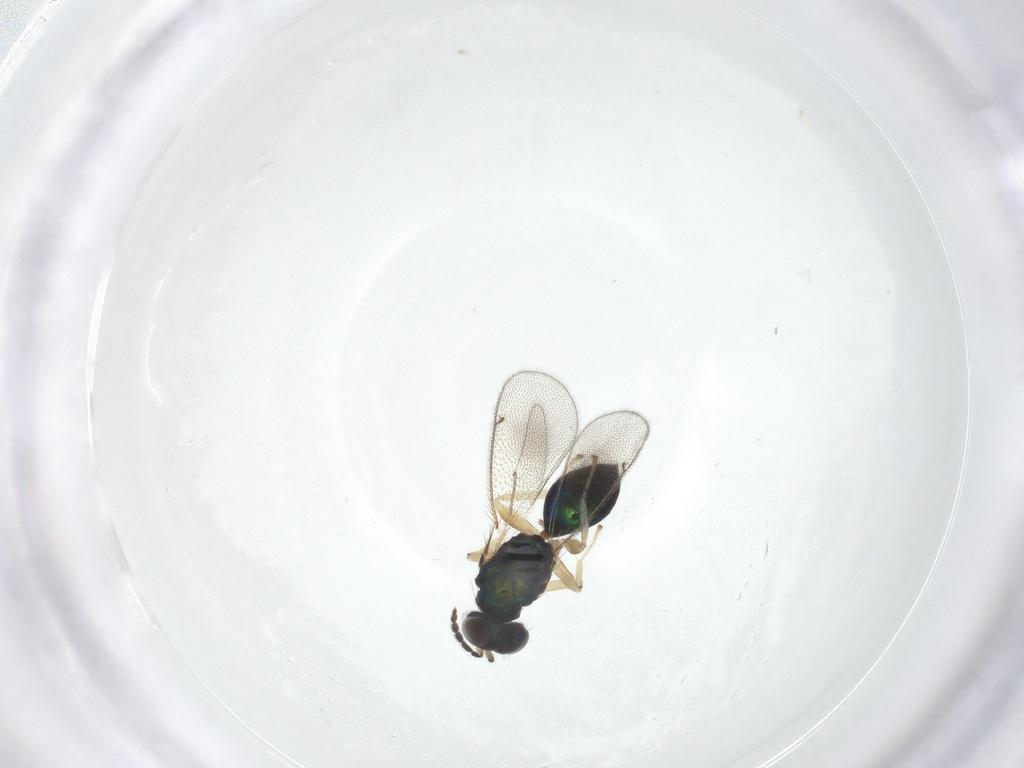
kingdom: Animalia
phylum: Arthropoda
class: Insecta
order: Hymenoptera
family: Eulophidae
